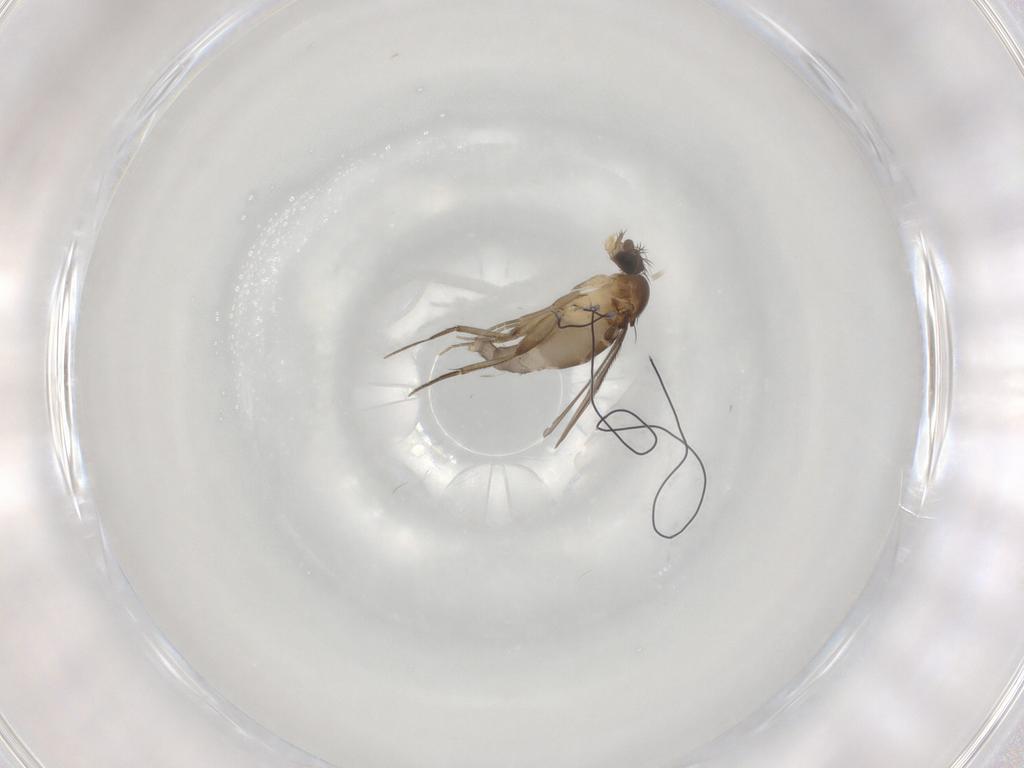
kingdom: Animalia
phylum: Arthropoda
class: Insecta
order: Diptera
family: Phoridae
